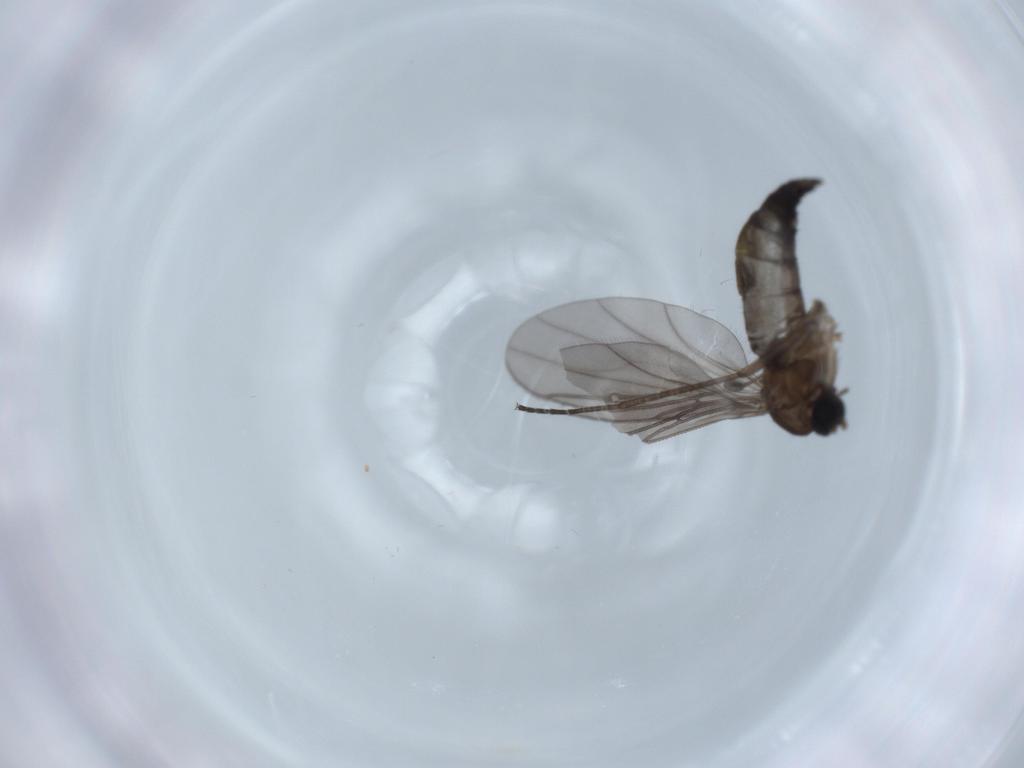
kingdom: Animalia
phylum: Arthropoda
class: Insecta
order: Diptera
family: Sciaridae
